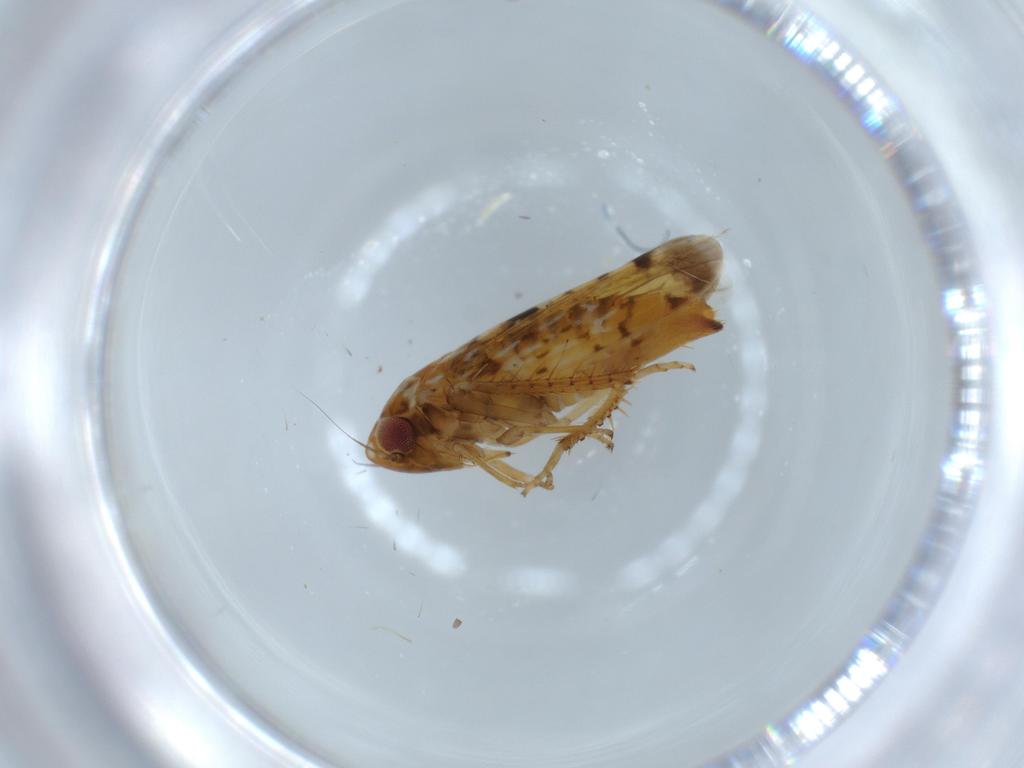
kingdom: Animalia
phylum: Arthropoda
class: Insecta
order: Hemiptera
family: Cicadellidae
